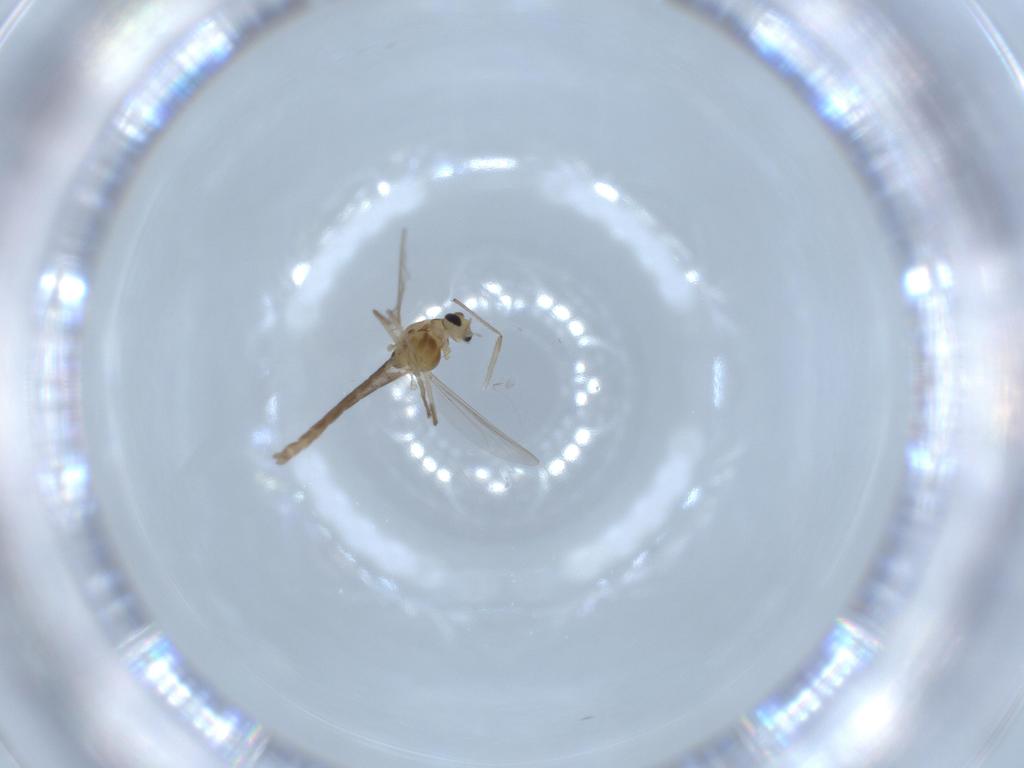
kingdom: Animalia
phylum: Arthropoda
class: Insecta
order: Diptera
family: Chironomidae
